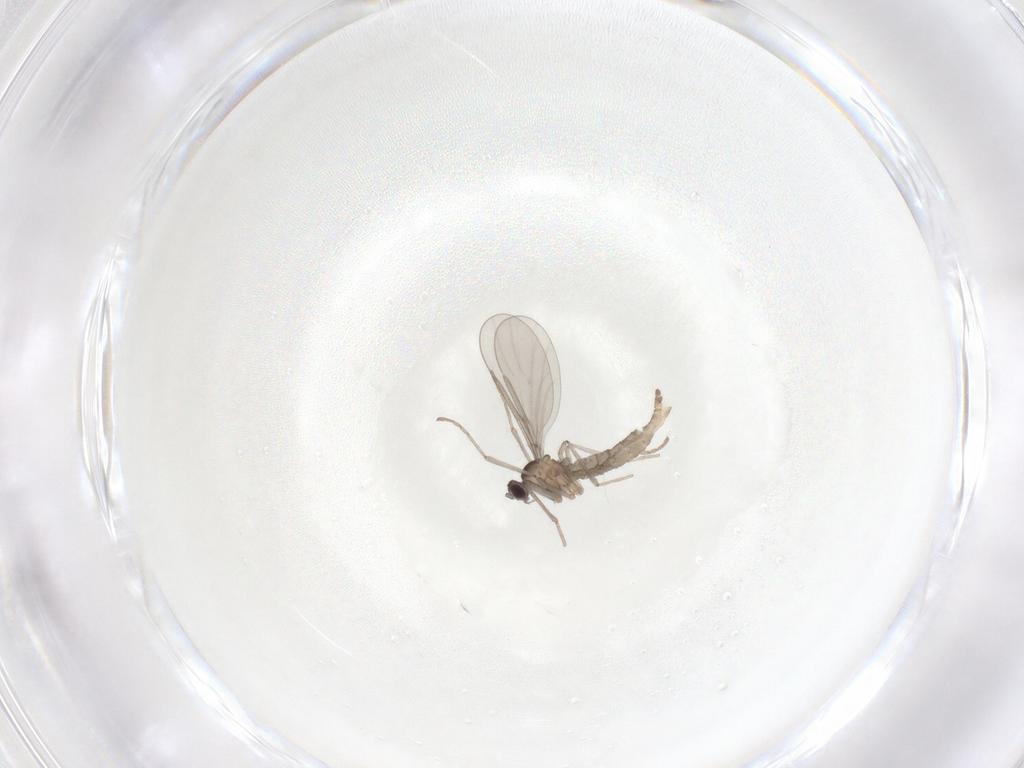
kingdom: Animalia
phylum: Arthropoda
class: Insecta
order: Diptera
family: Cecidomyiidae
